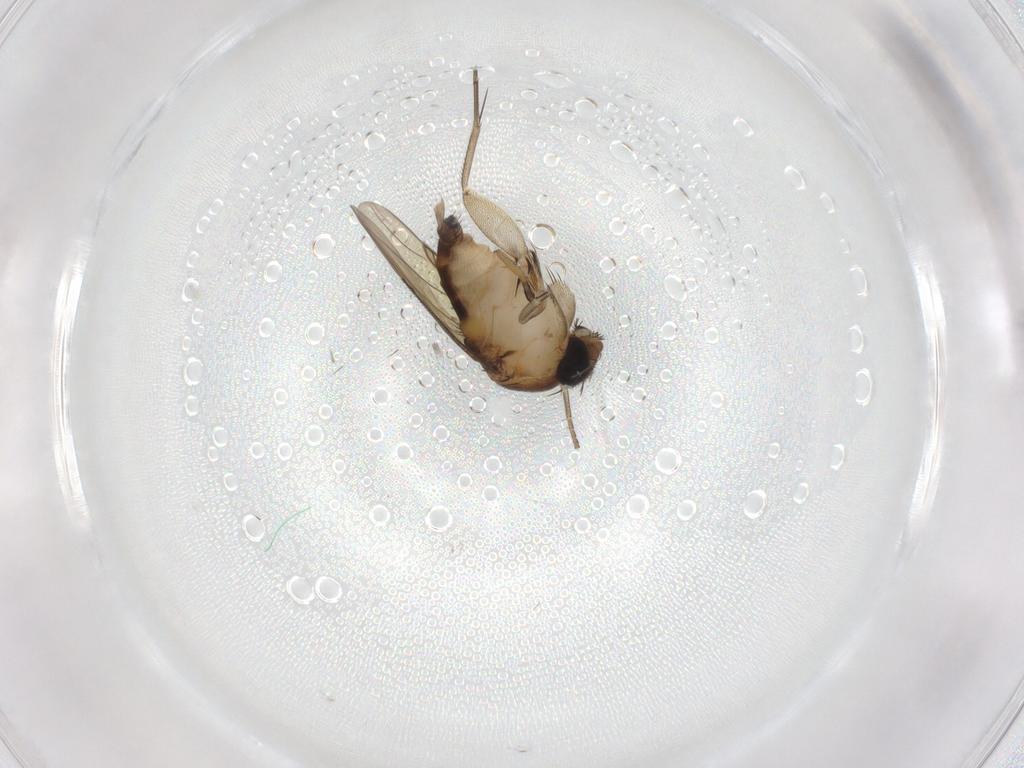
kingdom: Animalia
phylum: Arthropoda
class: Insecta
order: Diptera
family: Phoridae
